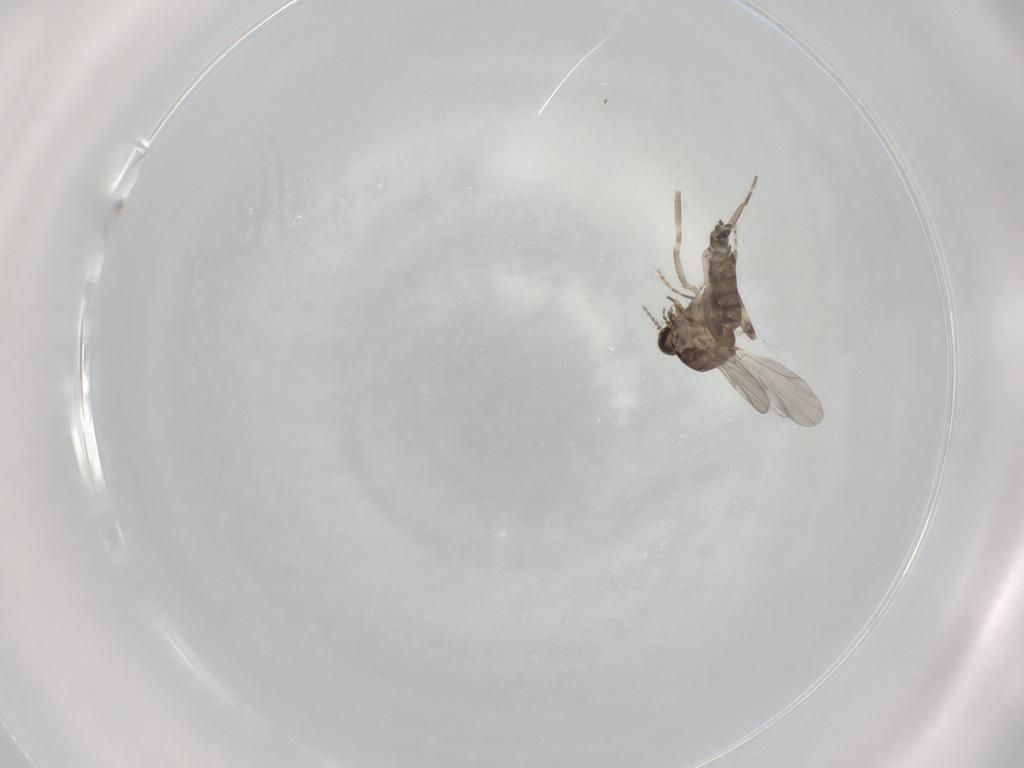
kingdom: Animalia
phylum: Arthropoda
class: Insecta
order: Diptera
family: Ceratopogonidae
